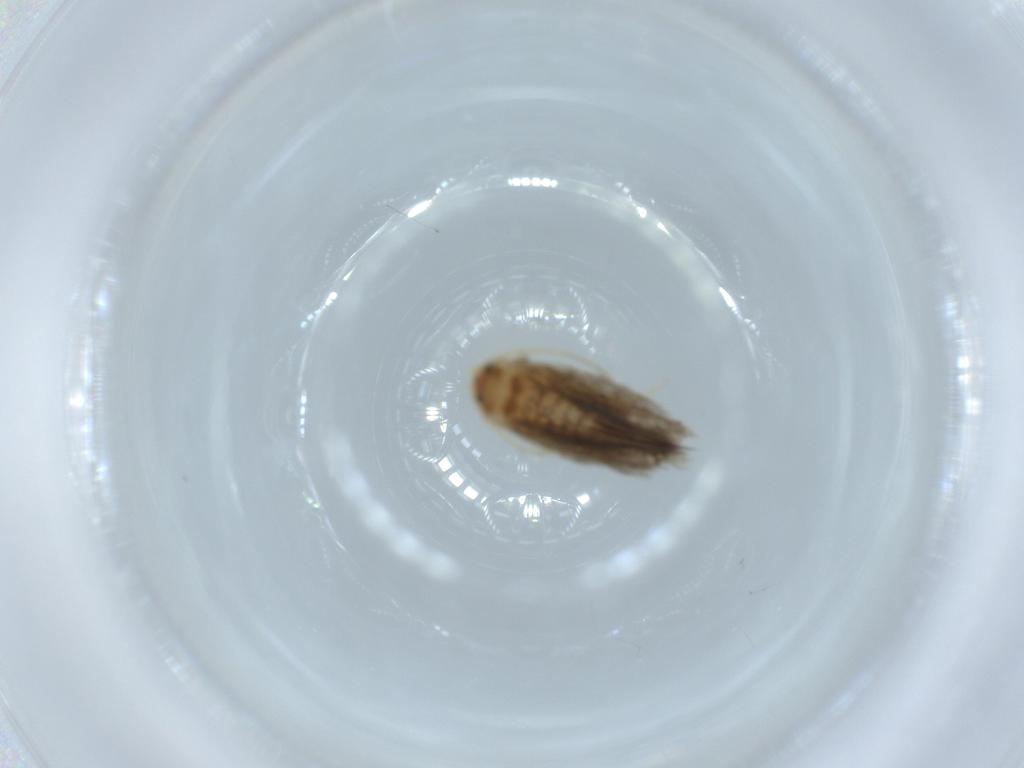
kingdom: Animalia
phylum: Arthropoda
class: Insecta
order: Lepidoptera
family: Nepticulidae
